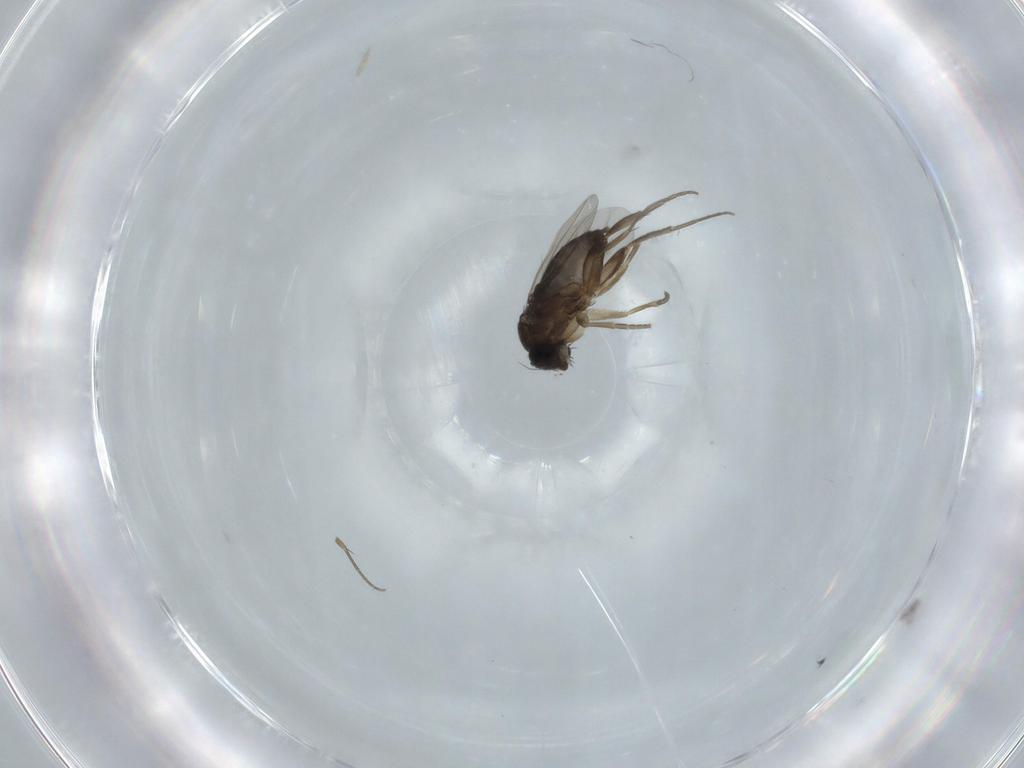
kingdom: Animalia
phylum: Arthropoda
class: Insecta
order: Diptera
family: Phoridae
